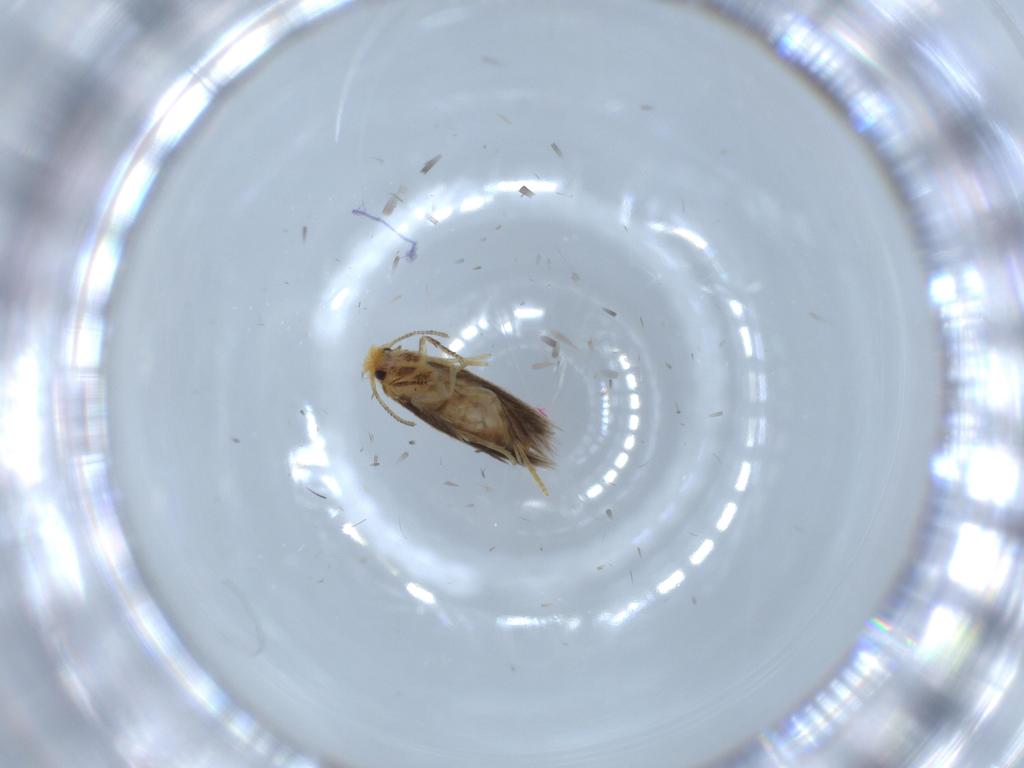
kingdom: Animalia
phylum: Arthropoda
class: Insecta
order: Lepidoptera
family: Nepticulidae
